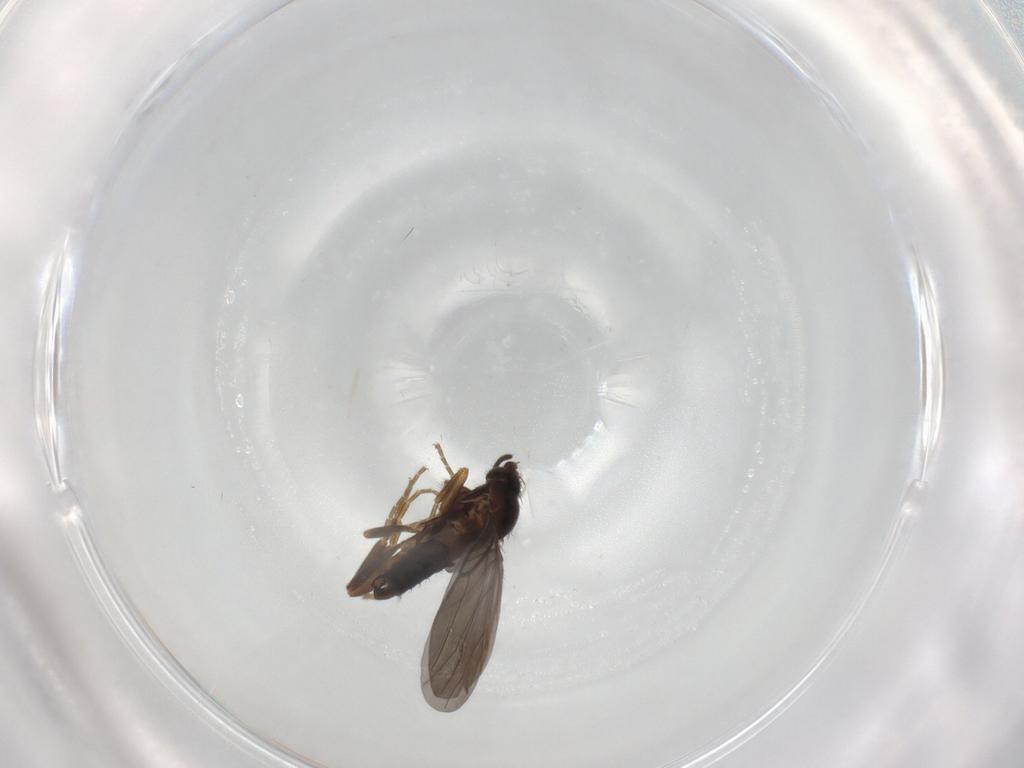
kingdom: Animalia
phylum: Arthropoda
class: Insecta
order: Diptera
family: Phoridae
